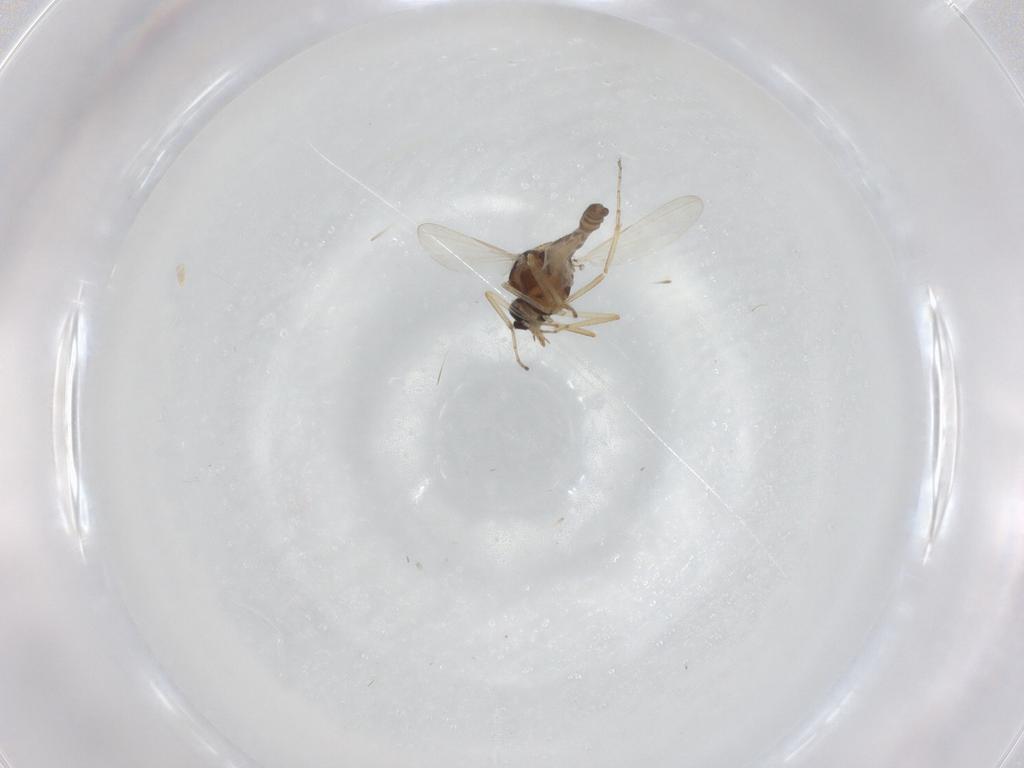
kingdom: Animalia
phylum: Arthropoda
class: Insecta
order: Diptera
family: Ceratopogonidae
